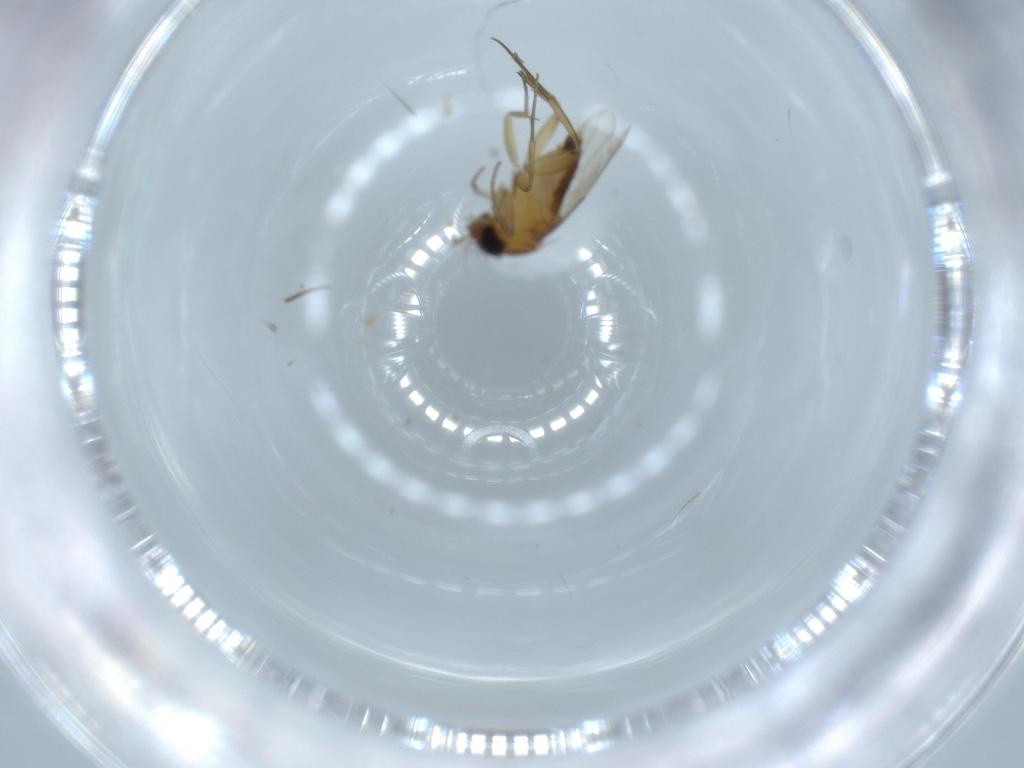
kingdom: Animalia
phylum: Arthropoda
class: Insecta
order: Diptera
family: Phoridae
